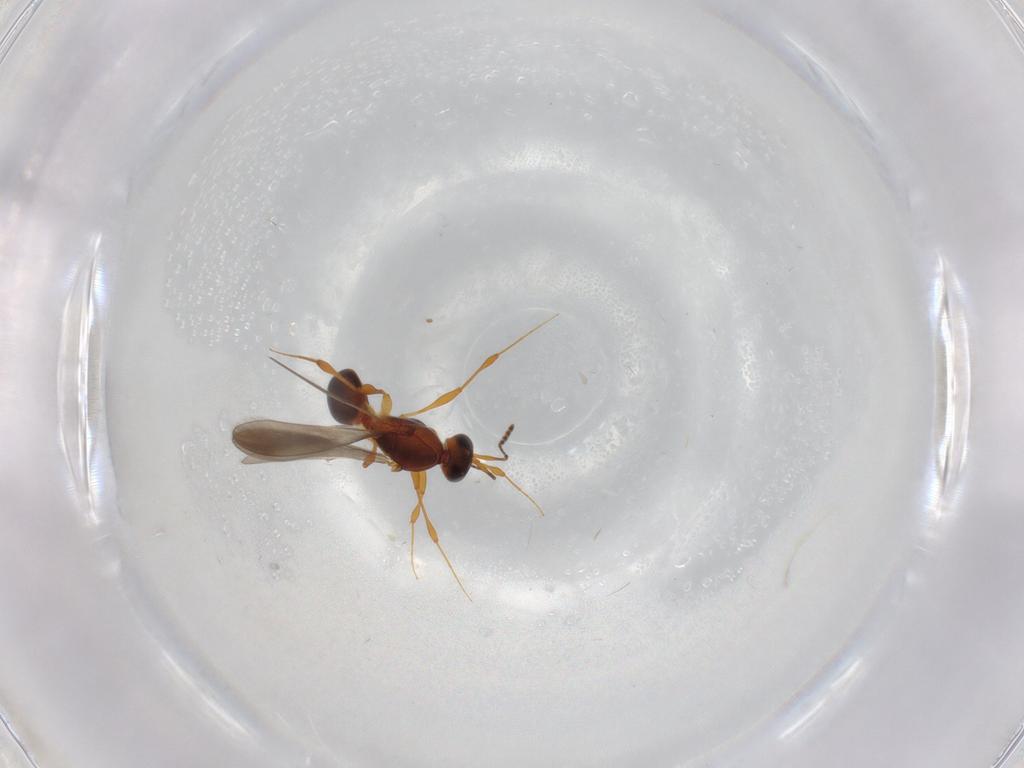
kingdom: Animalia
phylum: Arthropoda
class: Insecta
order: Hymenoptera
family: Platygastridae
